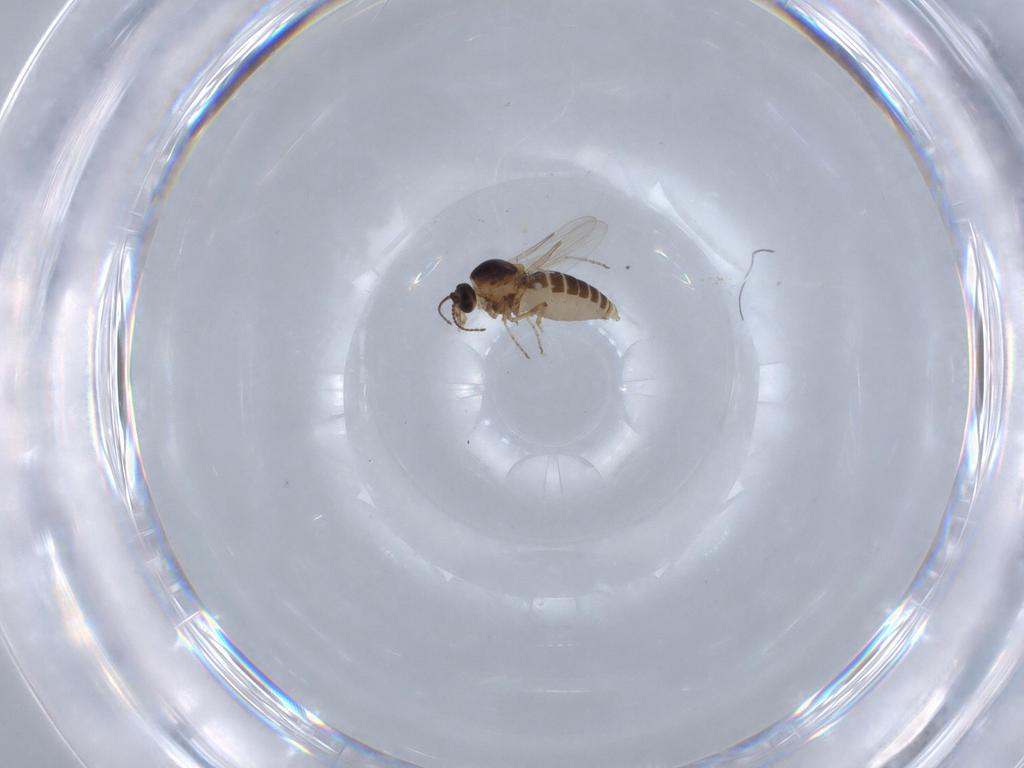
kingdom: Animalia
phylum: Arthropoda
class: Insecta
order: Diptera
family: Ceratopogonidae
